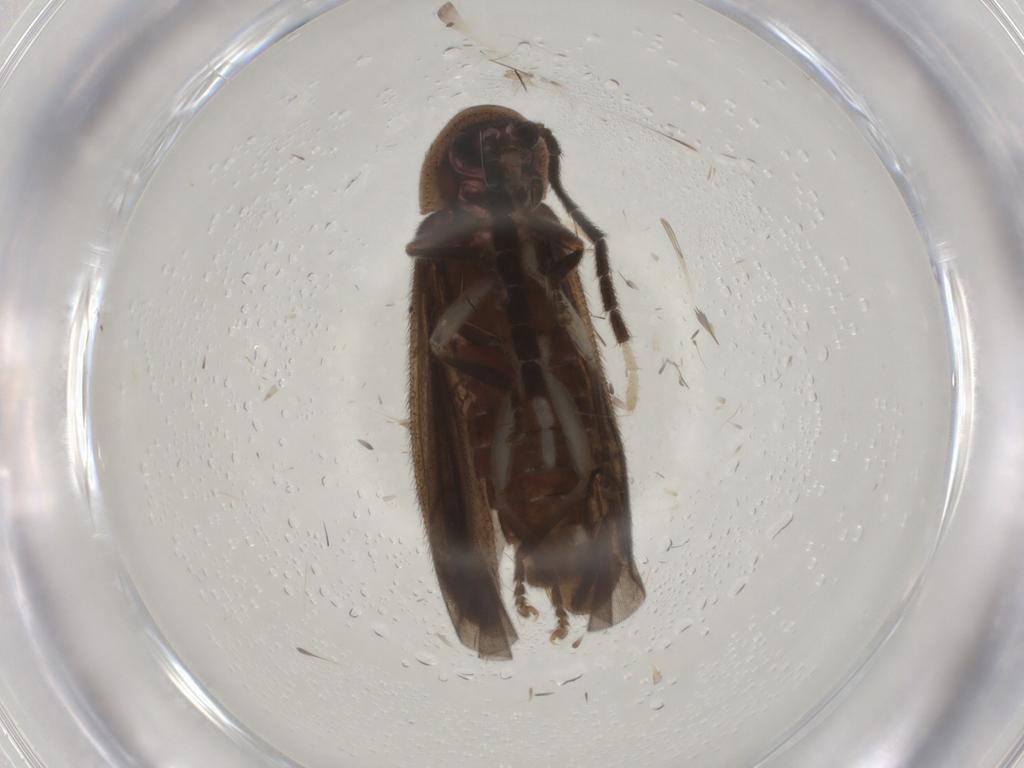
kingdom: Animalia
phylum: Arthropoda
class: Insecta
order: Coleoptera
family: Lampyridae
